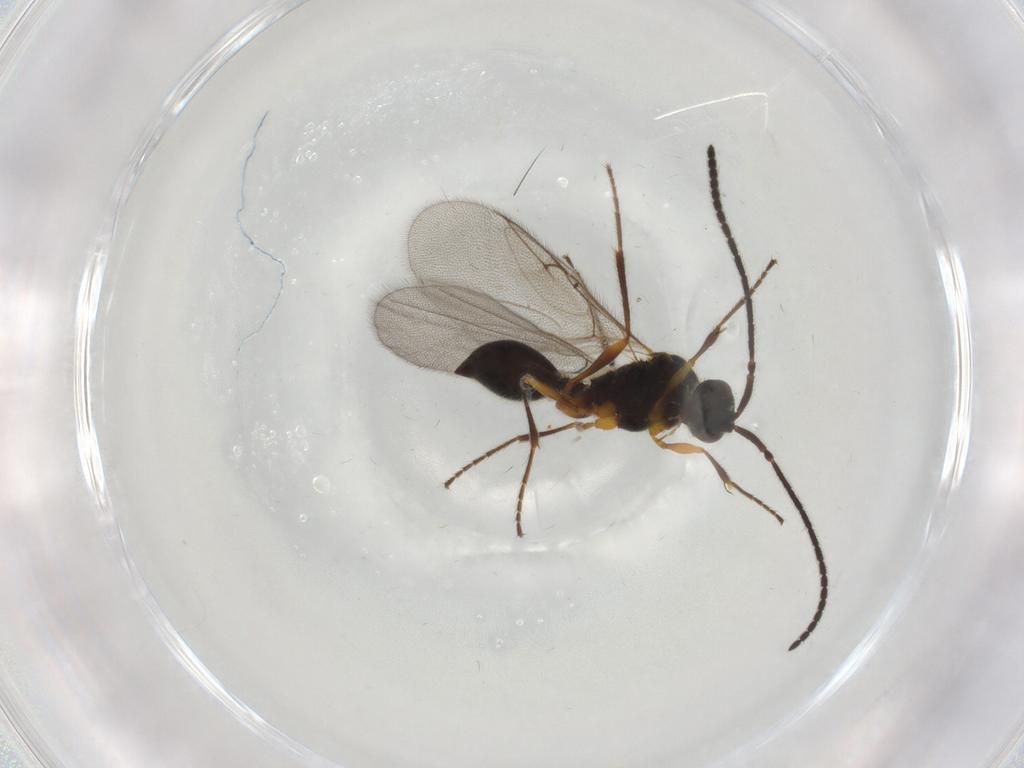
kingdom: Animalia
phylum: Arthropoda
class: Insecta
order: Hymenoptera
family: Diapriidae
